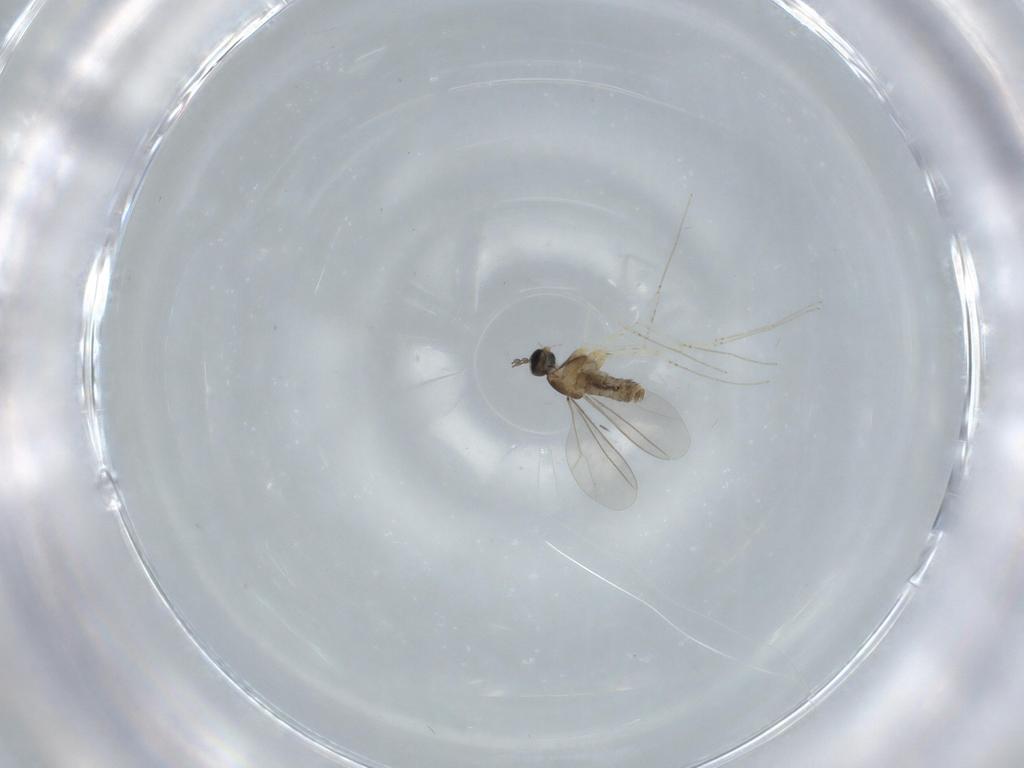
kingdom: Animalia
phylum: Arthropoda
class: Insecta
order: Diptera
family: Cecidomyiidae
